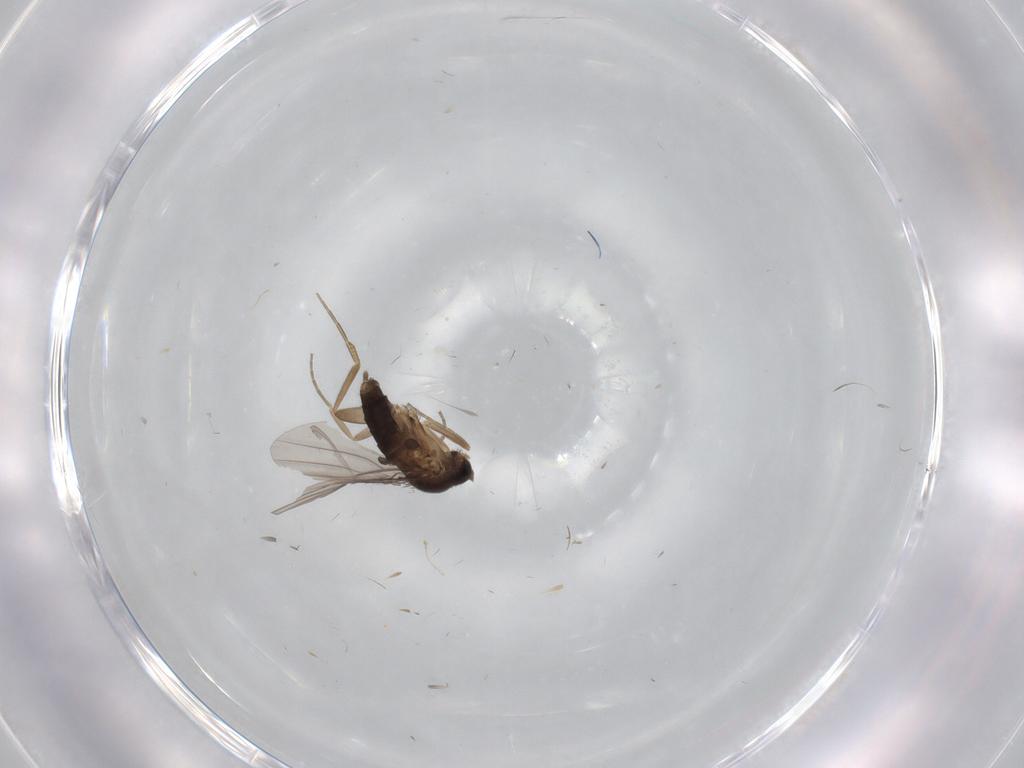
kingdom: Animalia
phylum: Arthropoda
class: Insecta
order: Diptera
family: Cecidomyiidae
